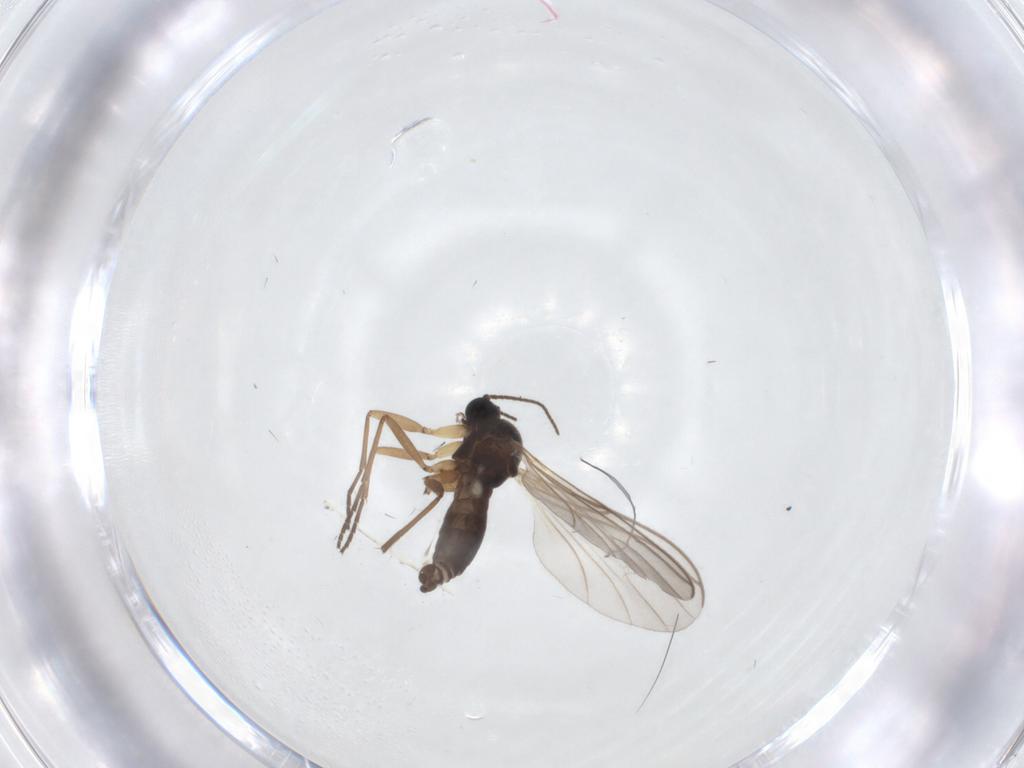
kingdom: Animalia
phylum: Arthropoda
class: Insecta
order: Diptera
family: Sciaridae
